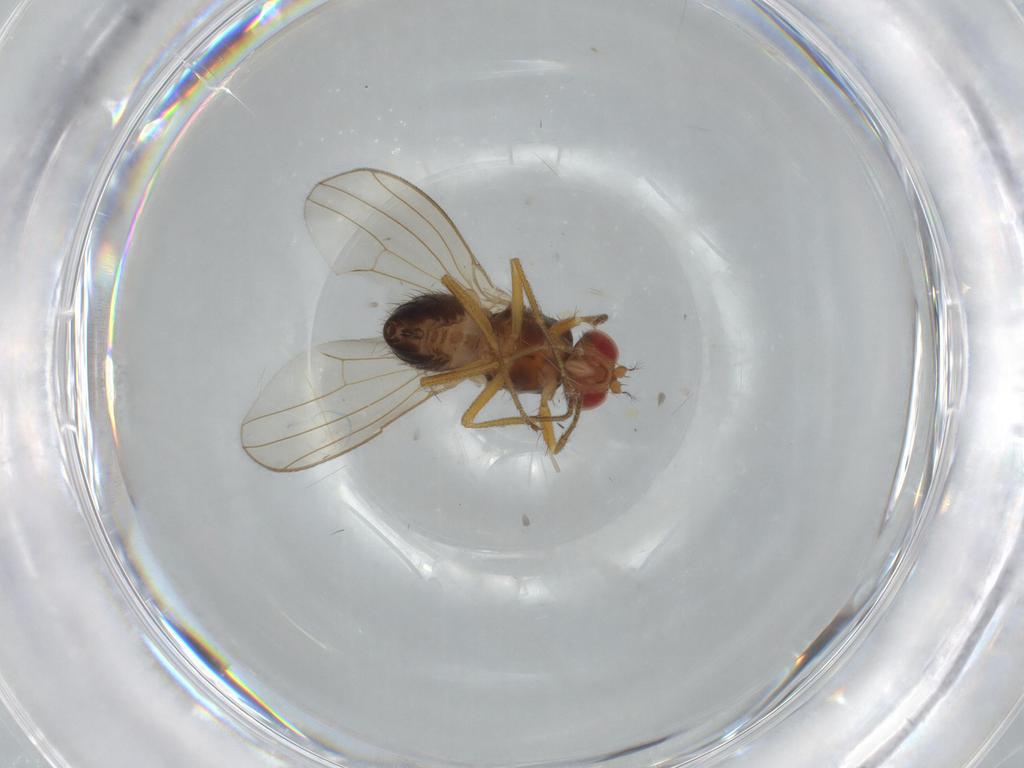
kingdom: Animalia
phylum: Arthropoda
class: Insecta
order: Diptera
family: Drosophilidae
